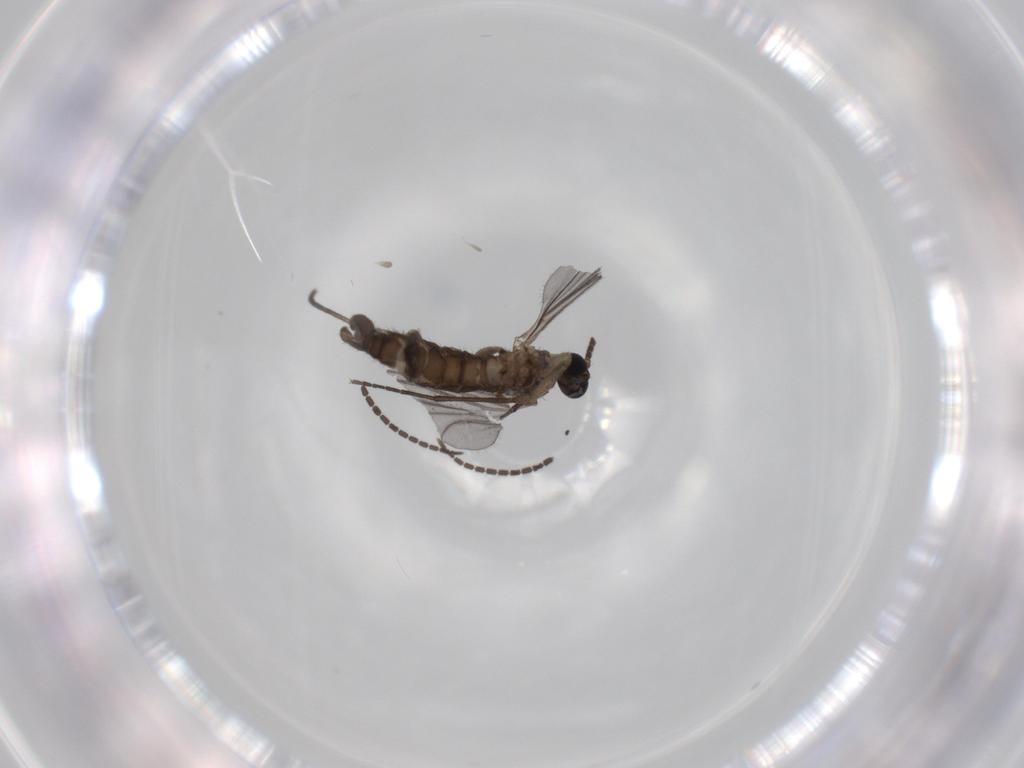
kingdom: Animalia
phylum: Arthropoda
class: Insecta
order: Diptera
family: Sciaridae
